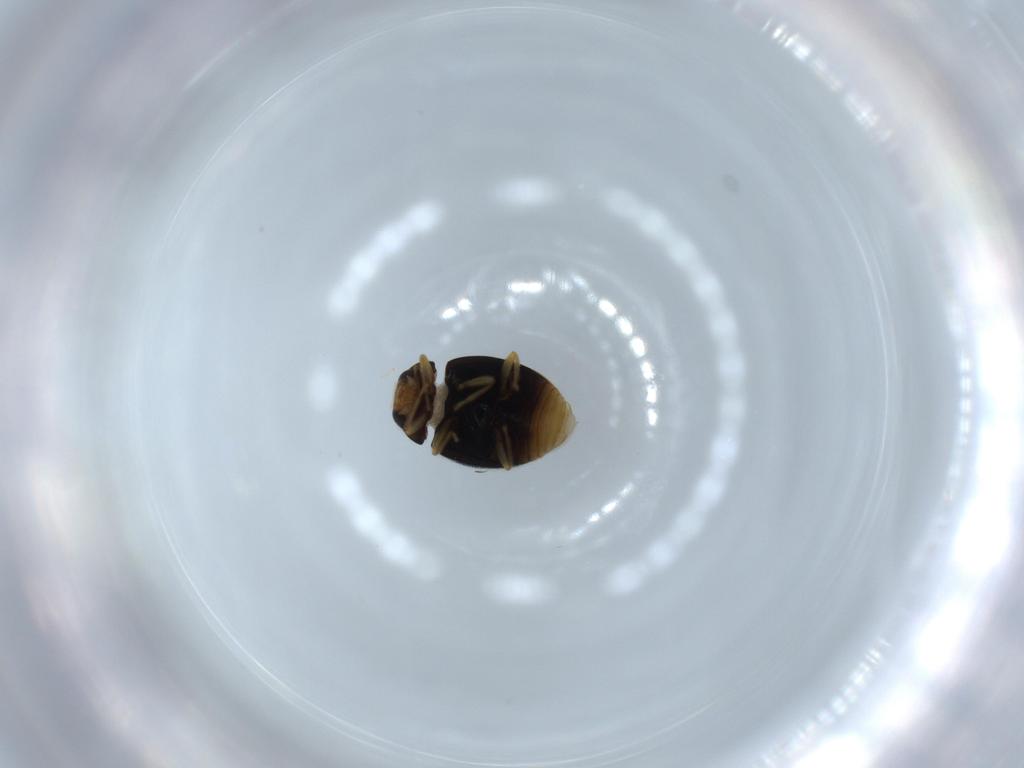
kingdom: Animalia
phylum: Arthropoda
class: Insecta
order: Coleoptera
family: Coccinellidae
